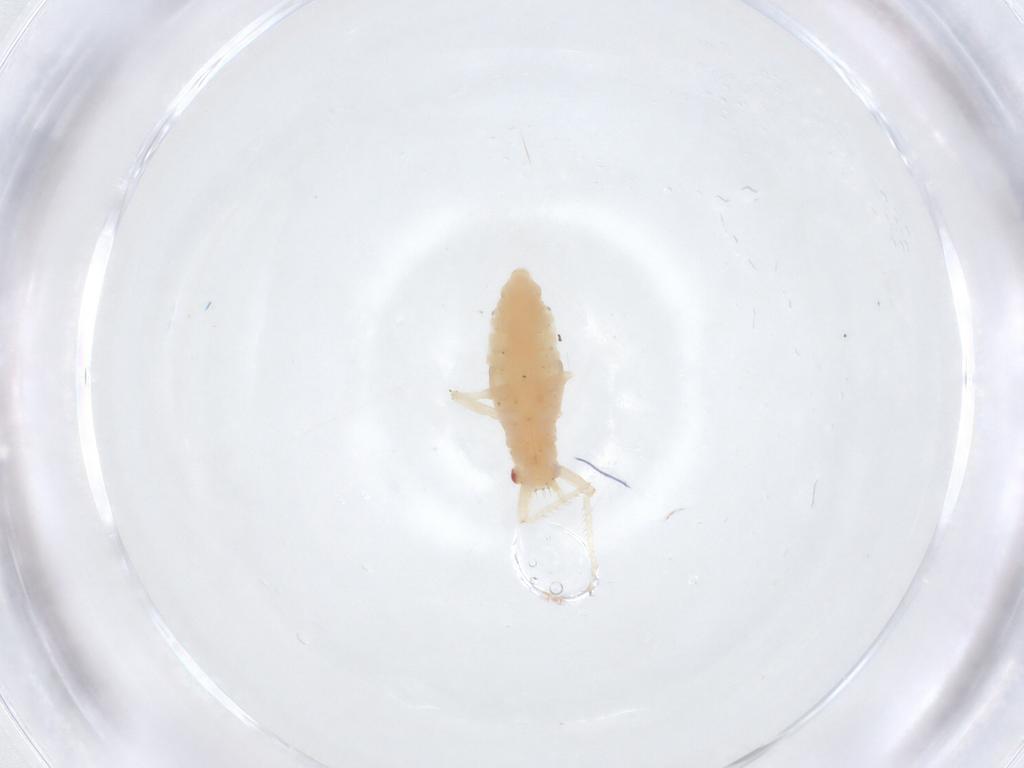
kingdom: Animalia
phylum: Arthropoda
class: Insecta
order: Hemiptera
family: Aphididae
